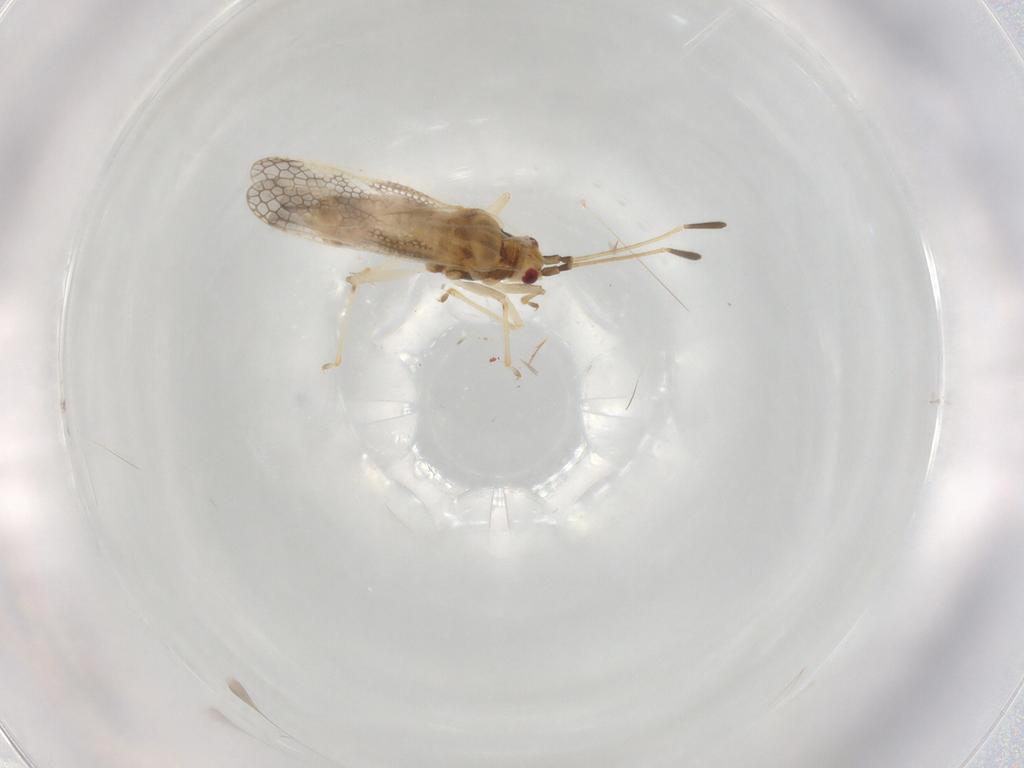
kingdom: Animalia
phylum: Arthropoda
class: Insecta
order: Hemiptera
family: Tingidae
